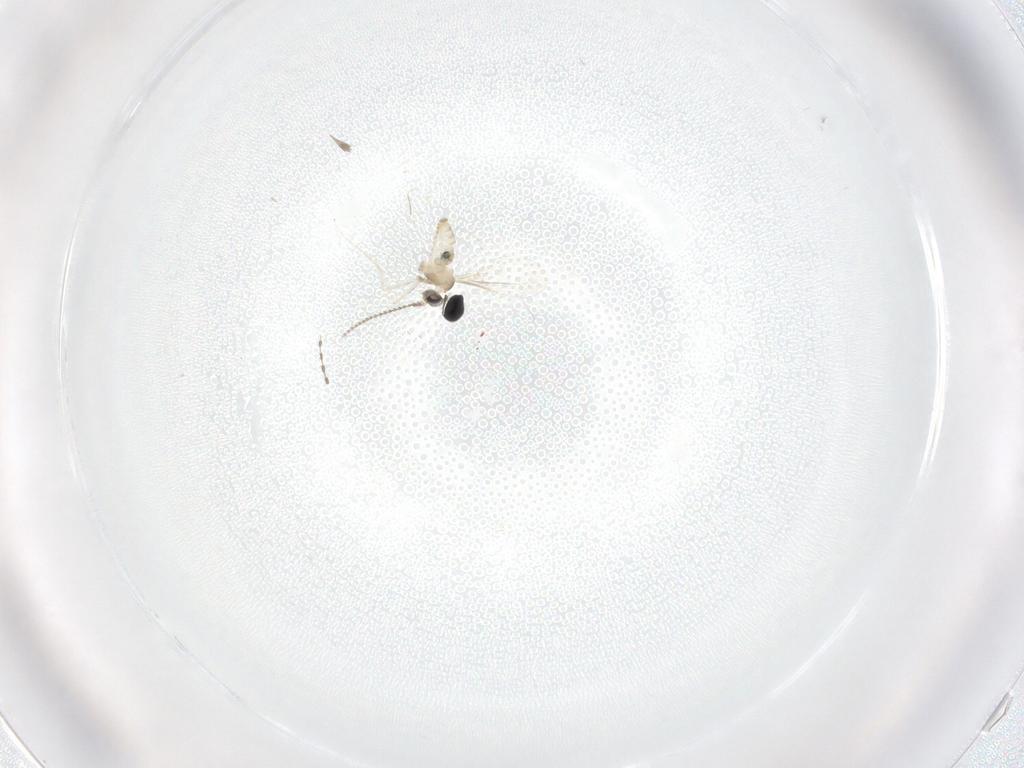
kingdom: Animalia
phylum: Arthropoda
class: Insecta
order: Diptera
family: Cecidomyiidae
